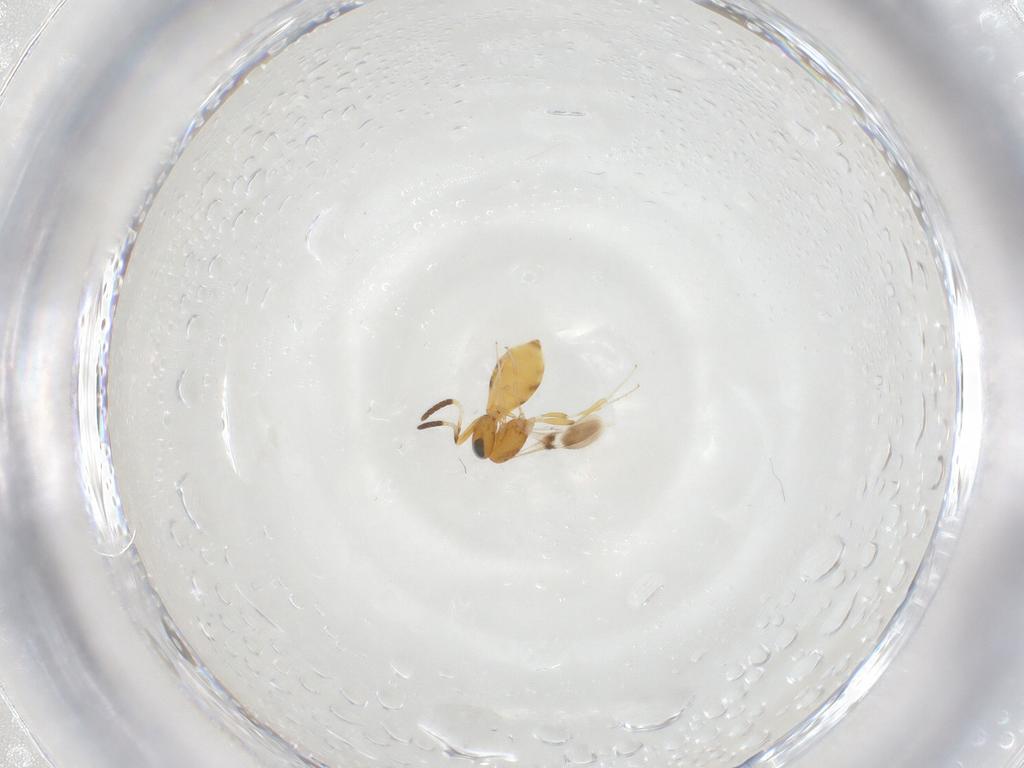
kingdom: Animalia
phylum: Arthropoda
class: Insecta
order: Hymenoptera
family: Scelionidae
